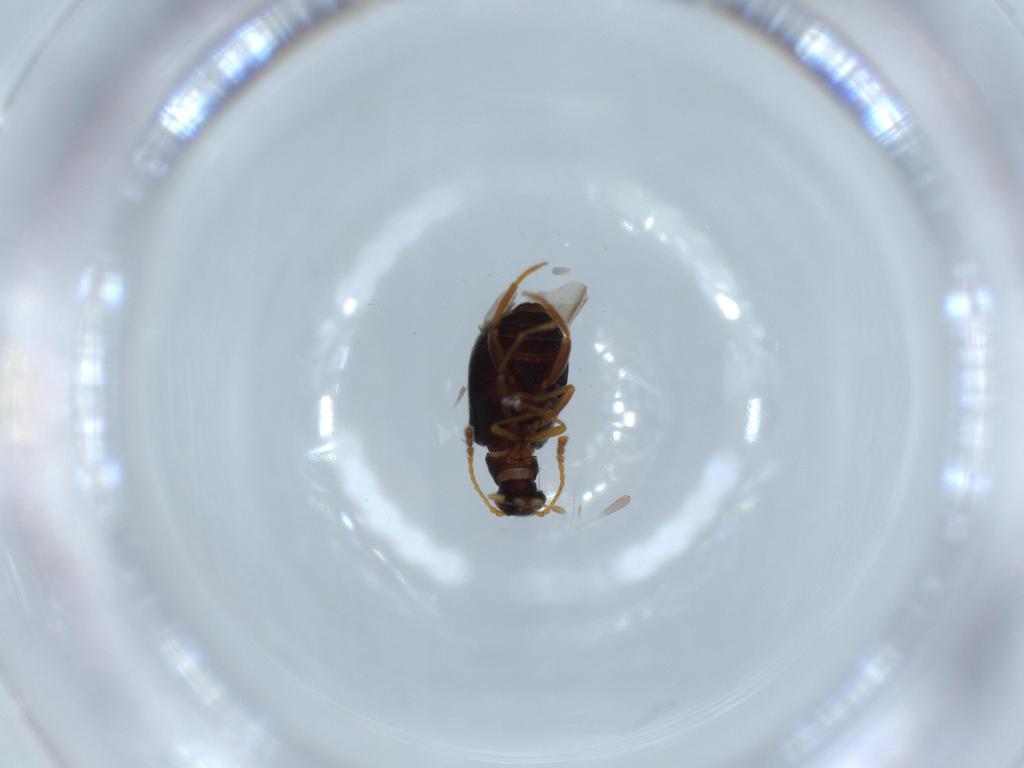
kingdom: Animalia
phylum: Arthropoda
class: Insecta
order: Coleoptera
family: Aderidae
